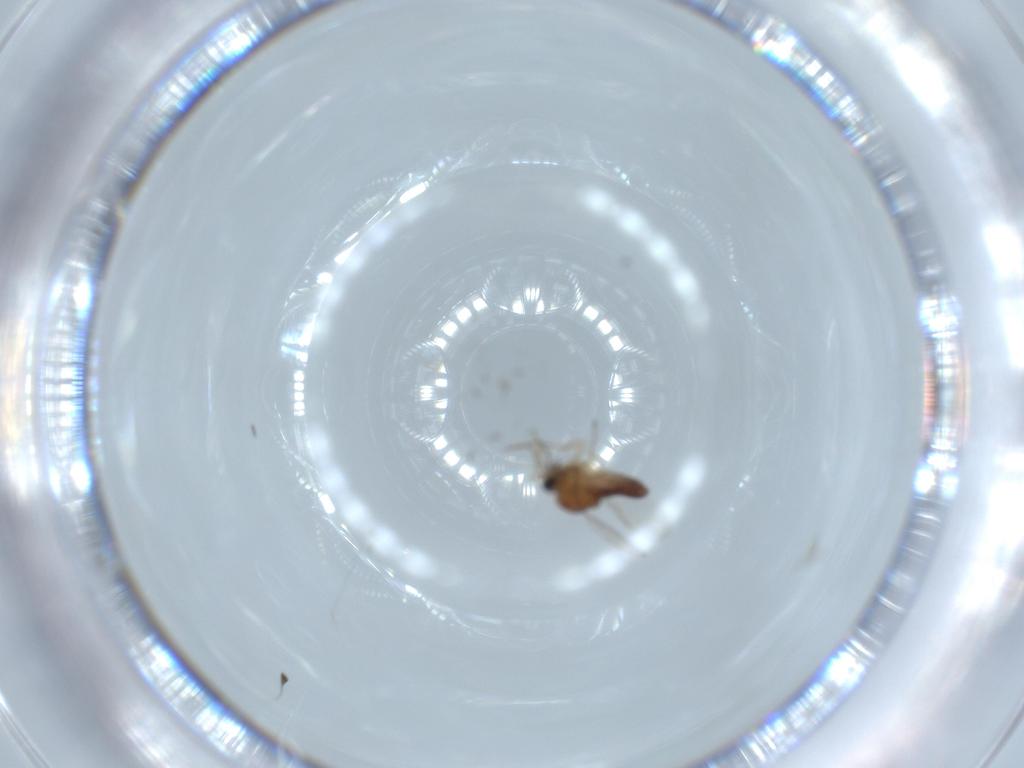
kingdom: Animalia
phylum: Arthropoda
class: Insecta
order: Diptera
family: Ceratopogonidae
